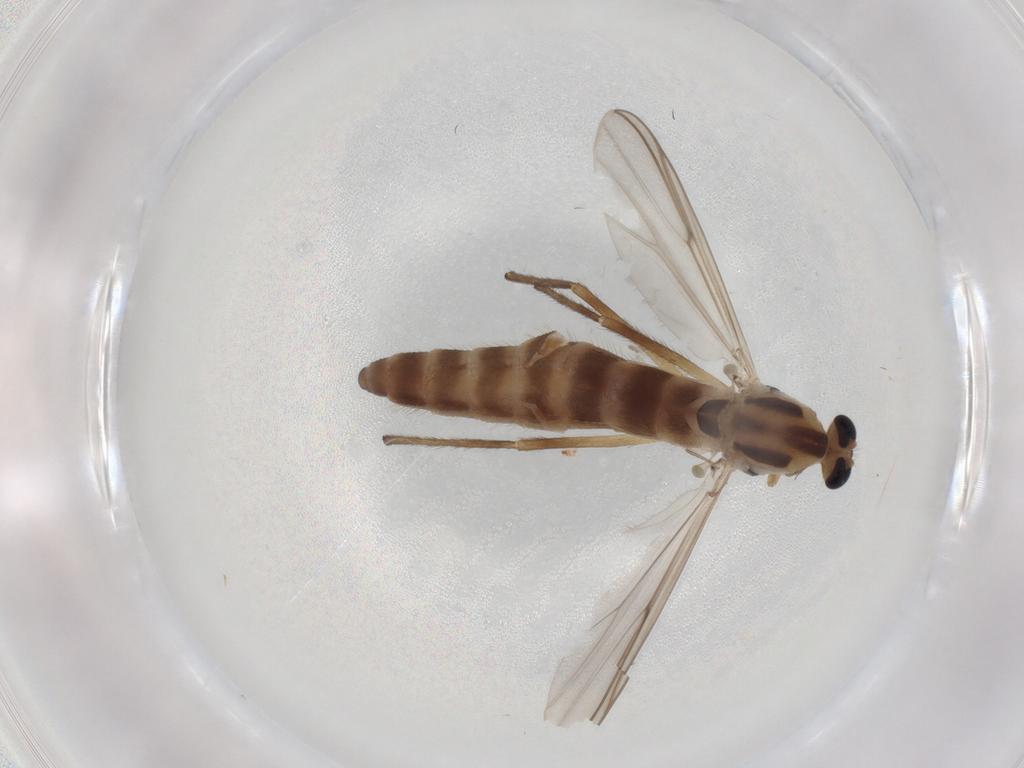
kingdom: Animalia
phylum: Arthropoda
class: Insecta
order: Diptera
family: Chironomidae
